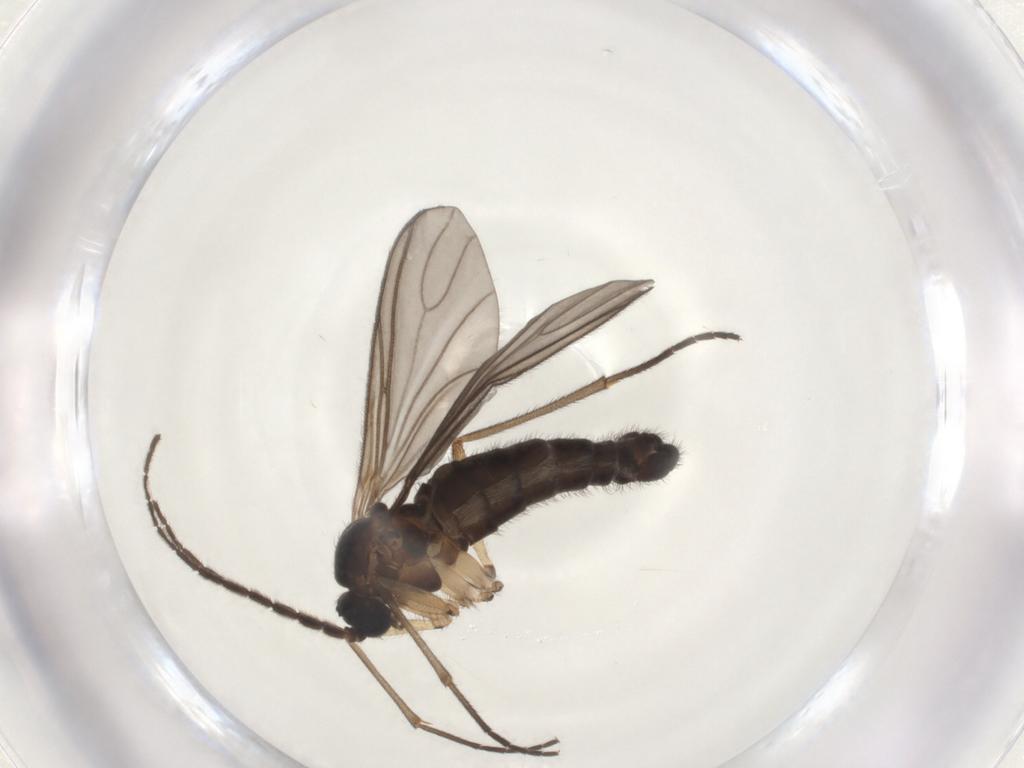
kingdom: Animalia
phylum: Arthropoda
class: Insecta
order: Diptera
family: Sciaridae
